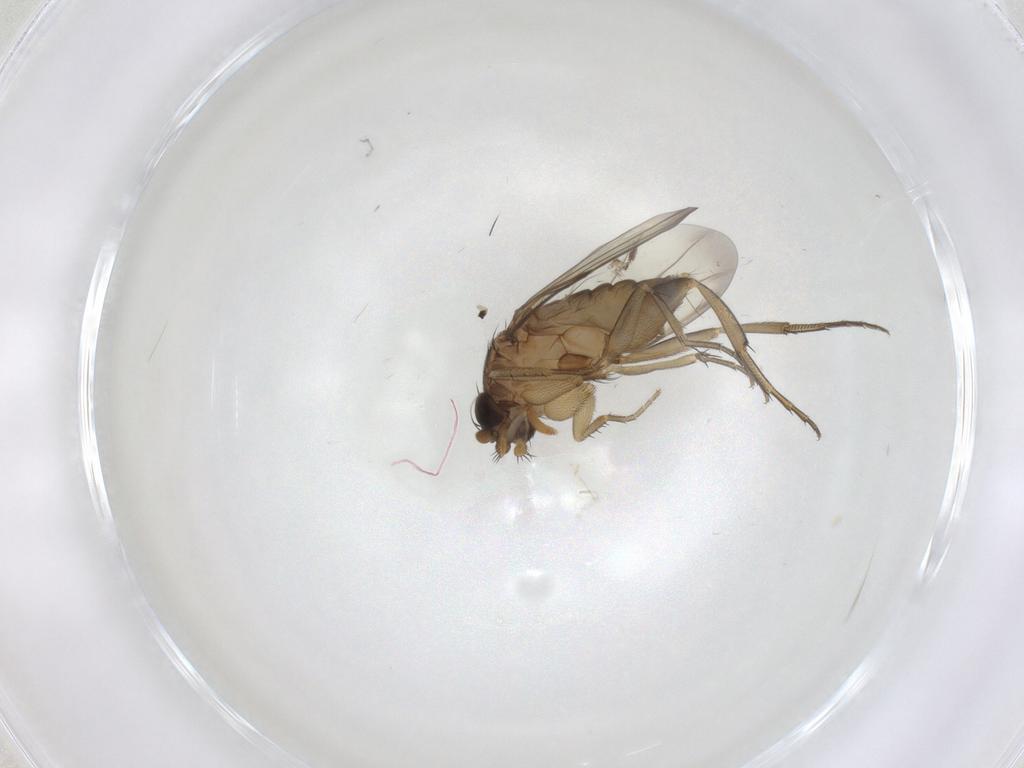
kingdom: Animalia
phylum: Arthropoda
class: Insecta
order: Diptera
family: Phoridae
